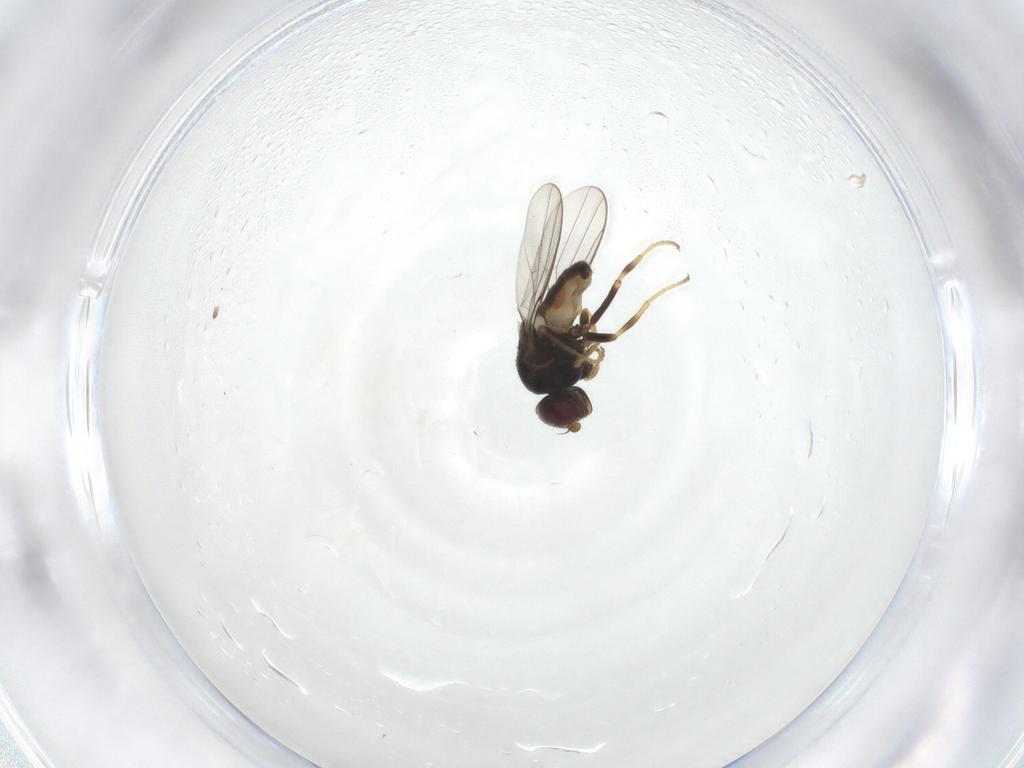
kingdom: Animalia
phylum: Arthropoda
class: Insecta
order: Diptera
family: Chloropidae
